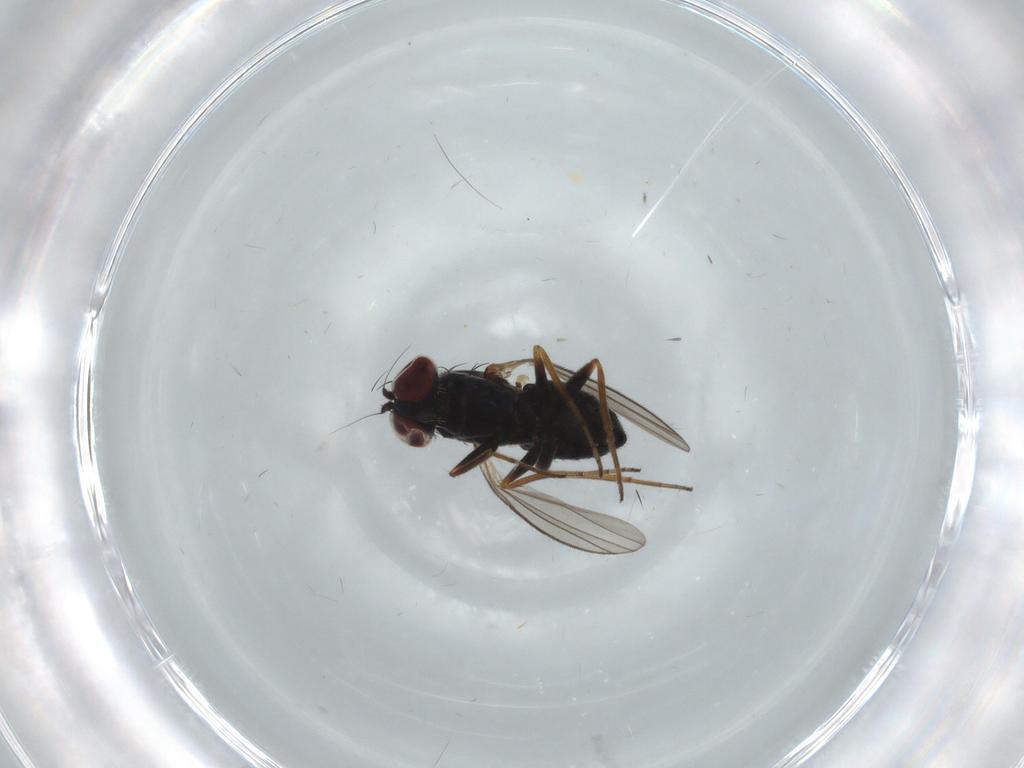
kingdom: Animalia
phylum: Arthropoda
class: Insecta
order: Diptera
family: Dolichopodidae
